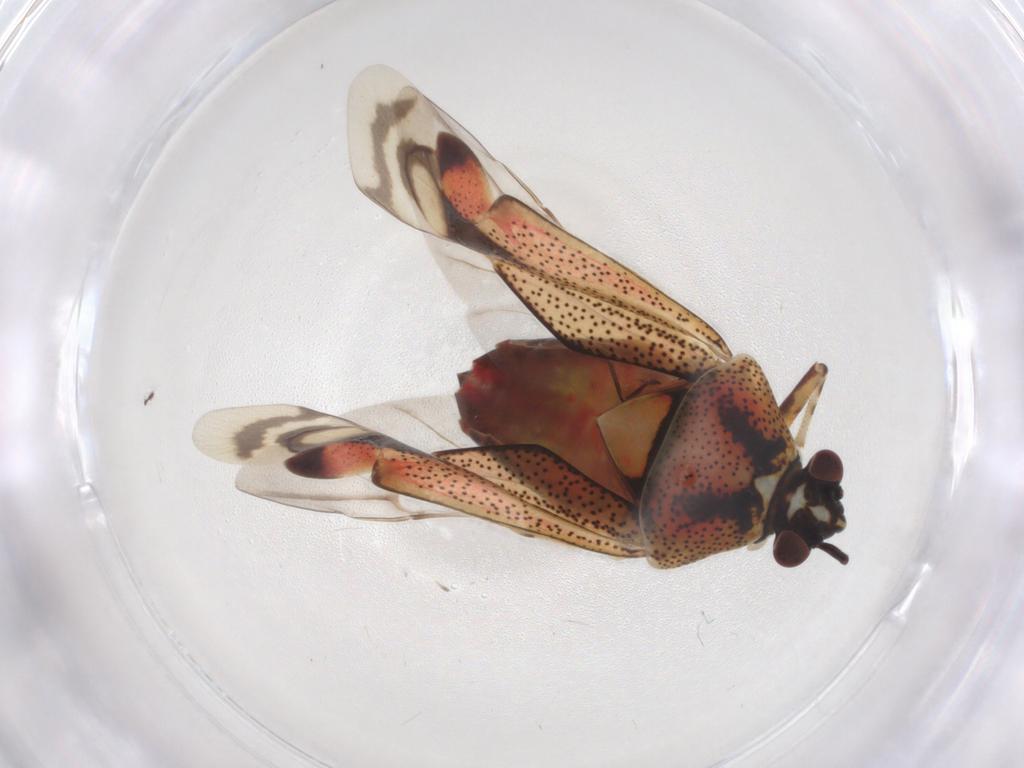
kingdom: Animalia
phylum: Arthropoda
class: Insecta
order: Hemiptera
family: Miridae
